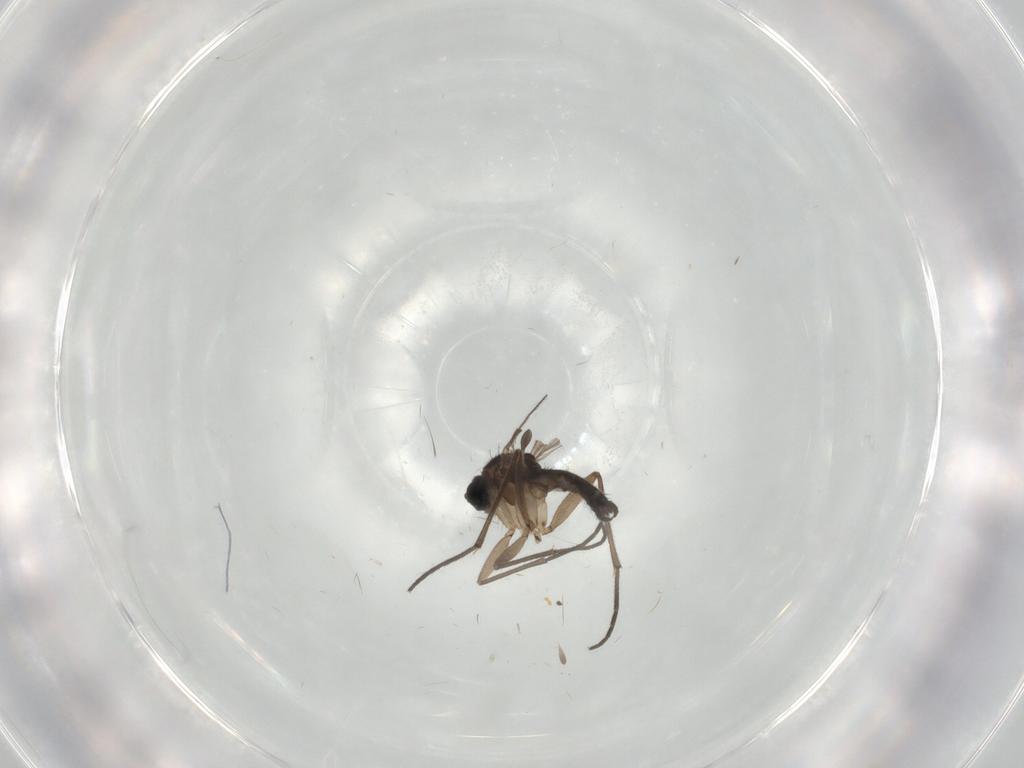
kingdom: Animalia
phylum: Arthropoda
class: Insecta
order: Diptera
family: Sciaridae
